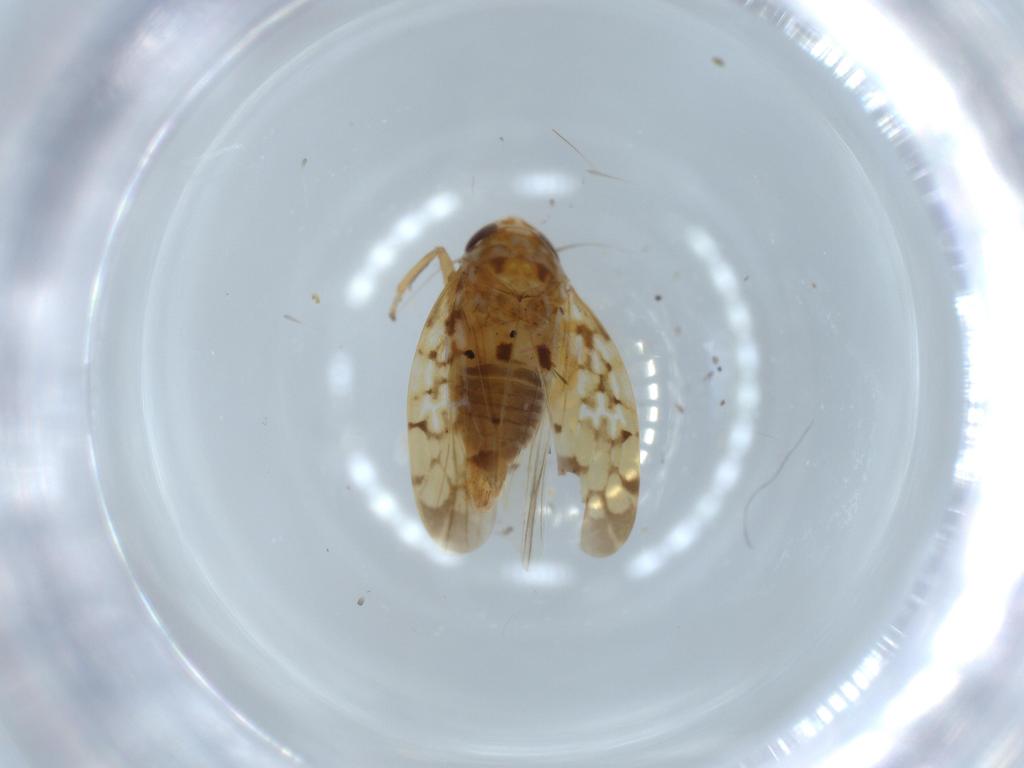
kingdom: Animalia
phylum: Arthropoda
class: Insecta
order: Hemiptera
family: Cicadellidae
